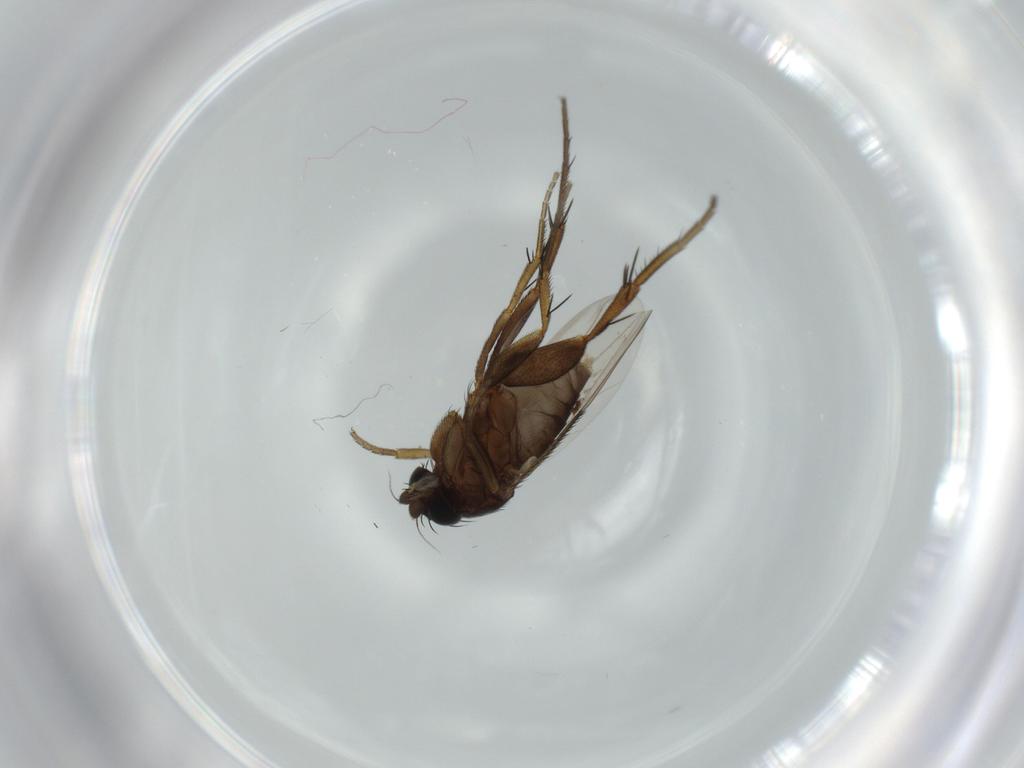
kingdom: Animalia
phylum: Arthropoda
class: Insecta
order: Diptera
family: Phoridae
